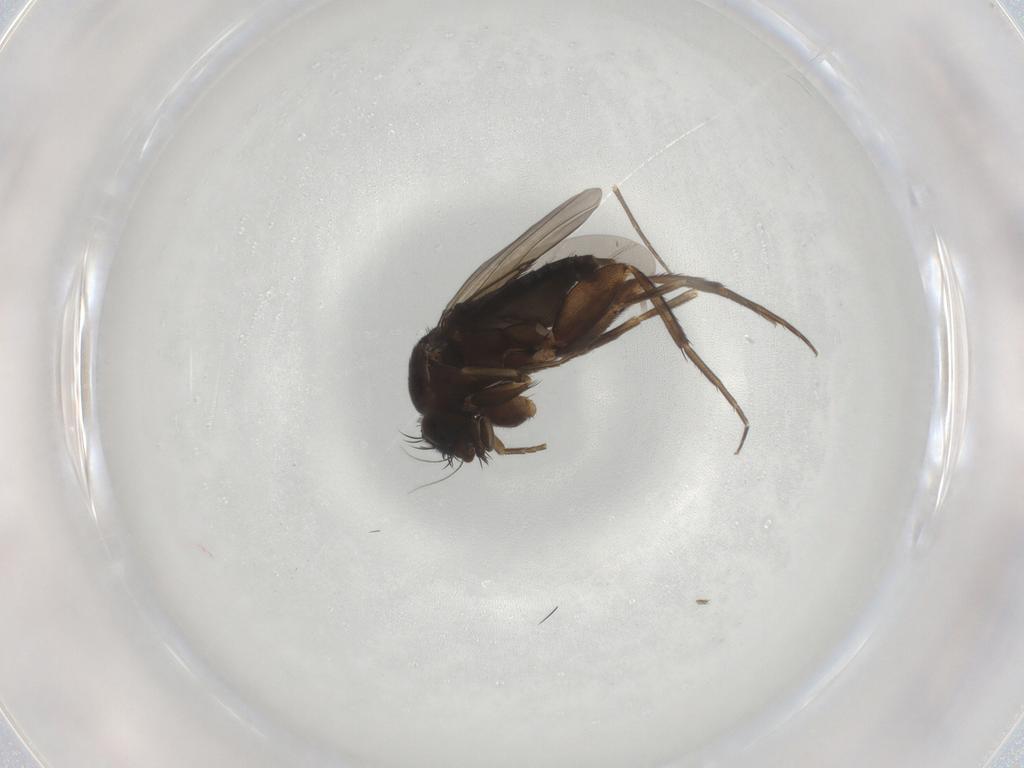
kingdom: Animalia
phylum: Arthropoda
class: Insecta
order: Diptera
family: Phoridae
